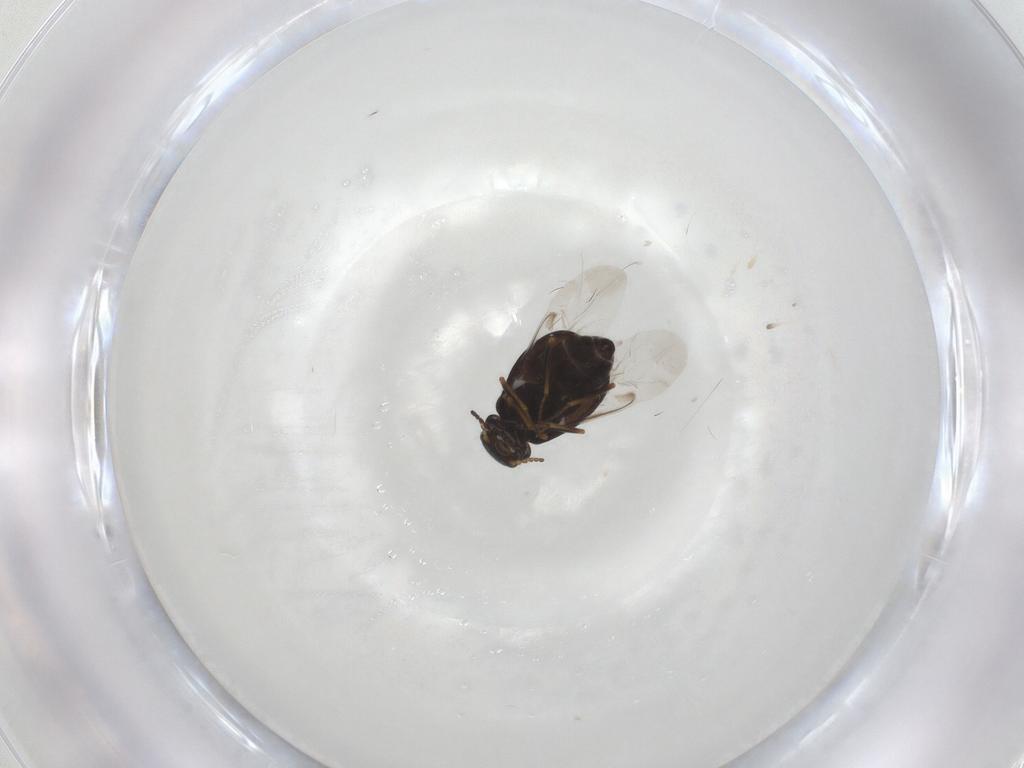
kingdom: Animalia
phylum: Arthropoda
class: Insecta
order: Coleoptera
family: Melyridae
